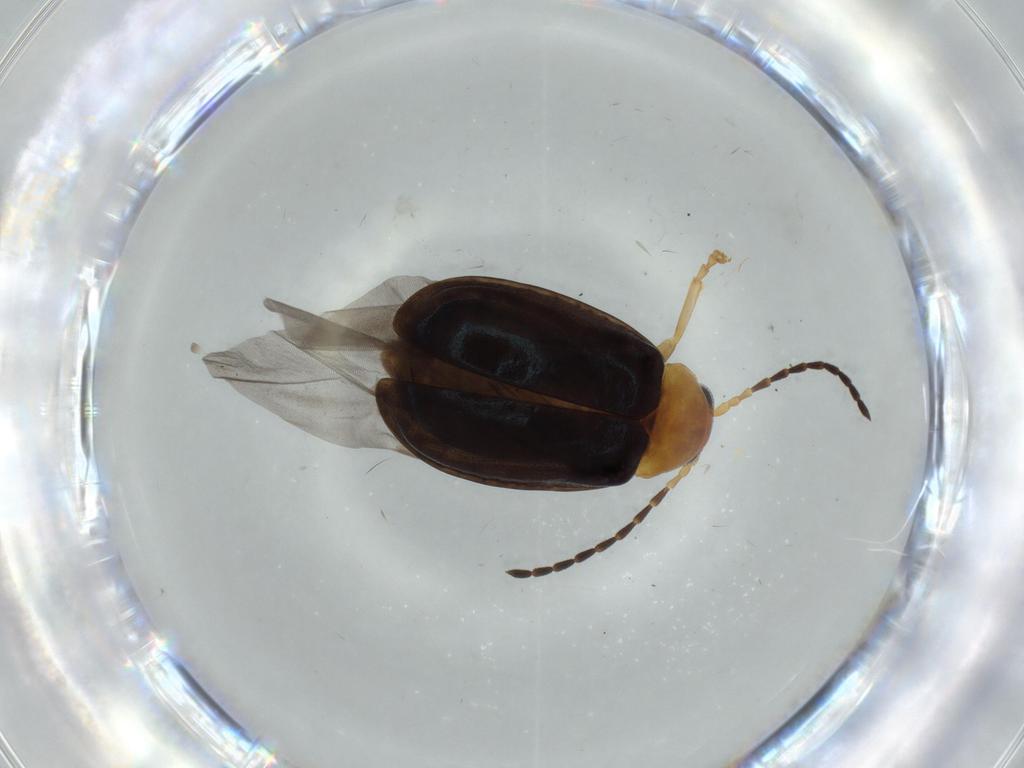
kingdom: Animalia
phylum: Arthropoda
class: Insecta
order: Coleoptera
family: Chrysomelidae
